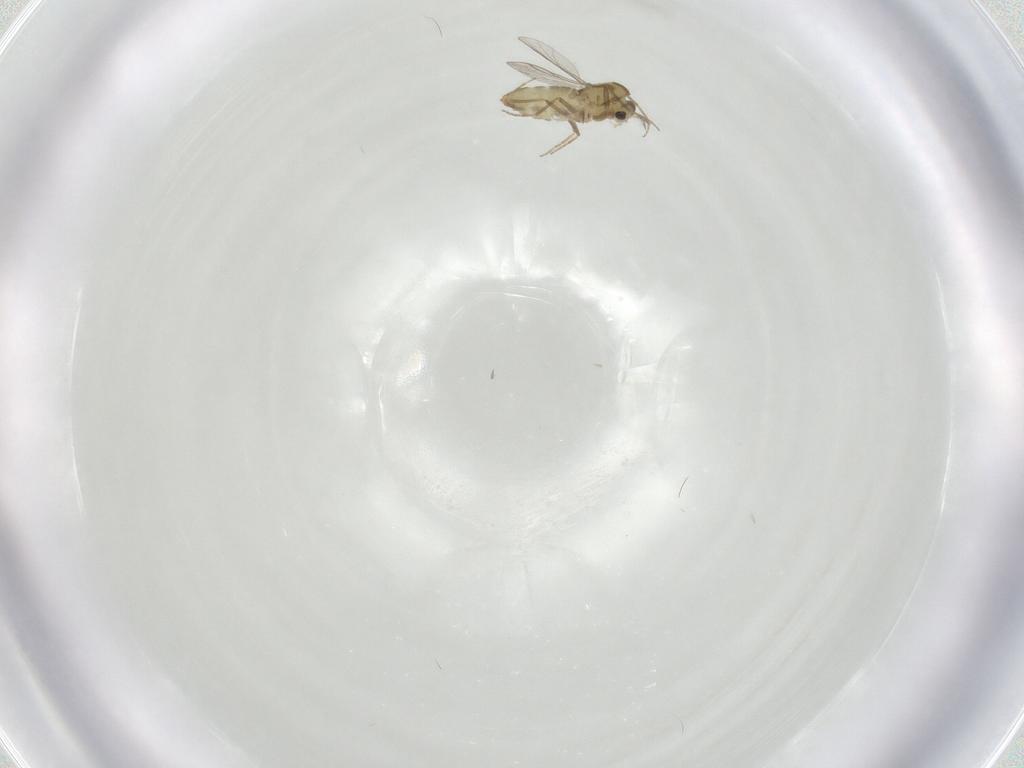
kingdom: Animalia
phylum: Arthropoda
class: Insecta
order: Diptera
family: Chironomidae
